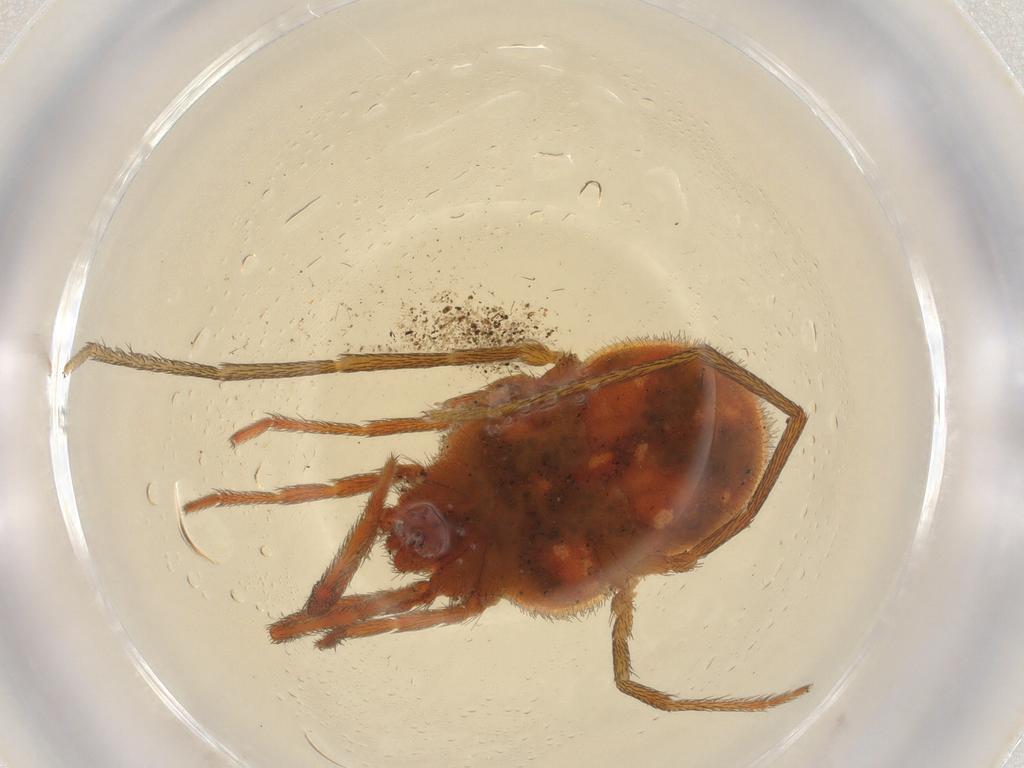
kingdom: Animalia
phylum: Arthropoda
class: Arachnida
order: Trombidiformes
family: Erythraeidae
